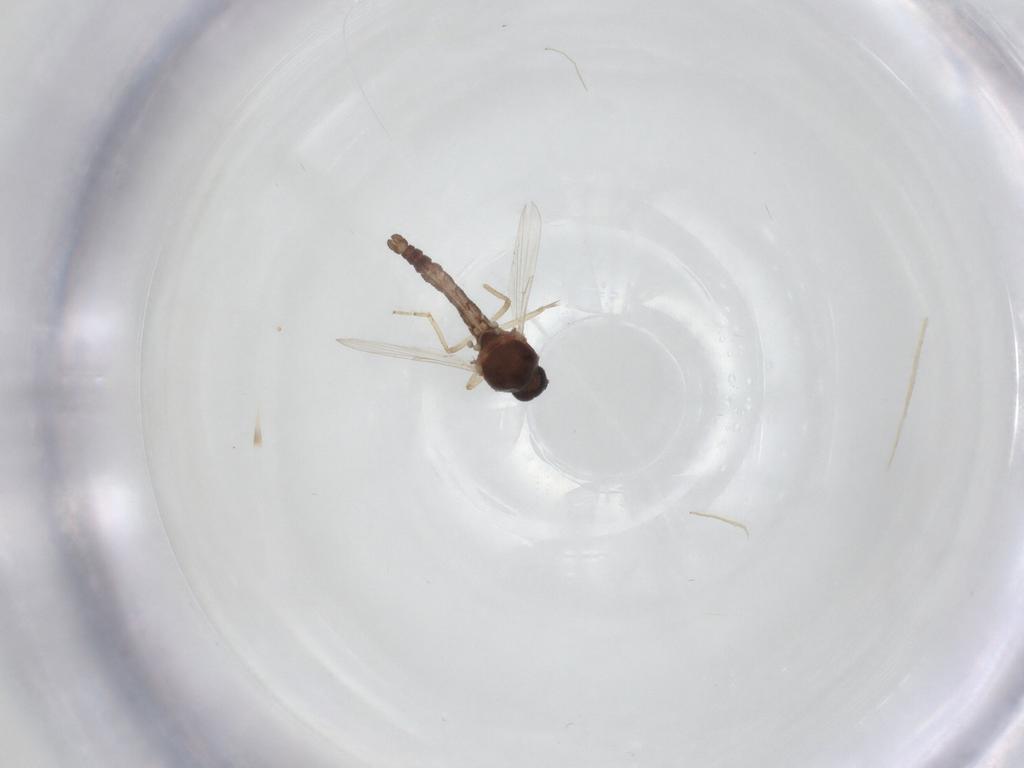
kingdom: Animalia
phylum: Arthropoda
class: Insecta
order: Diptera
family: Ceratopogonidae
